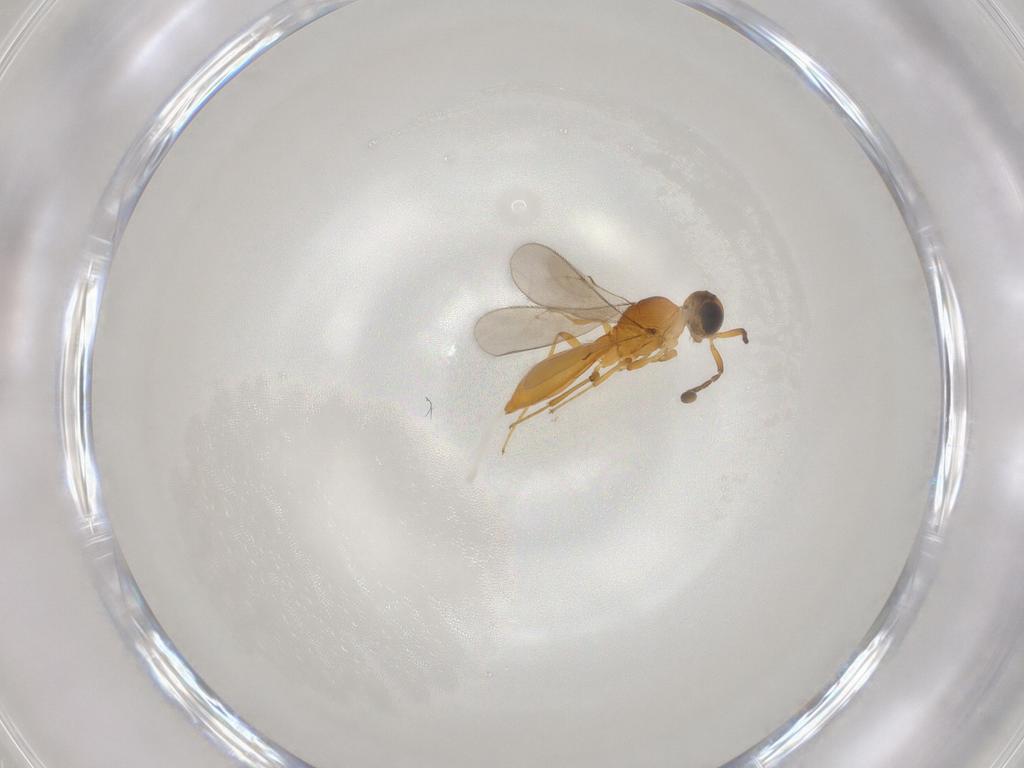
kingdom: Animalia
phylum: Arthropoda
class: Insecta
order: Hymenoptera
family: Scelionidae
